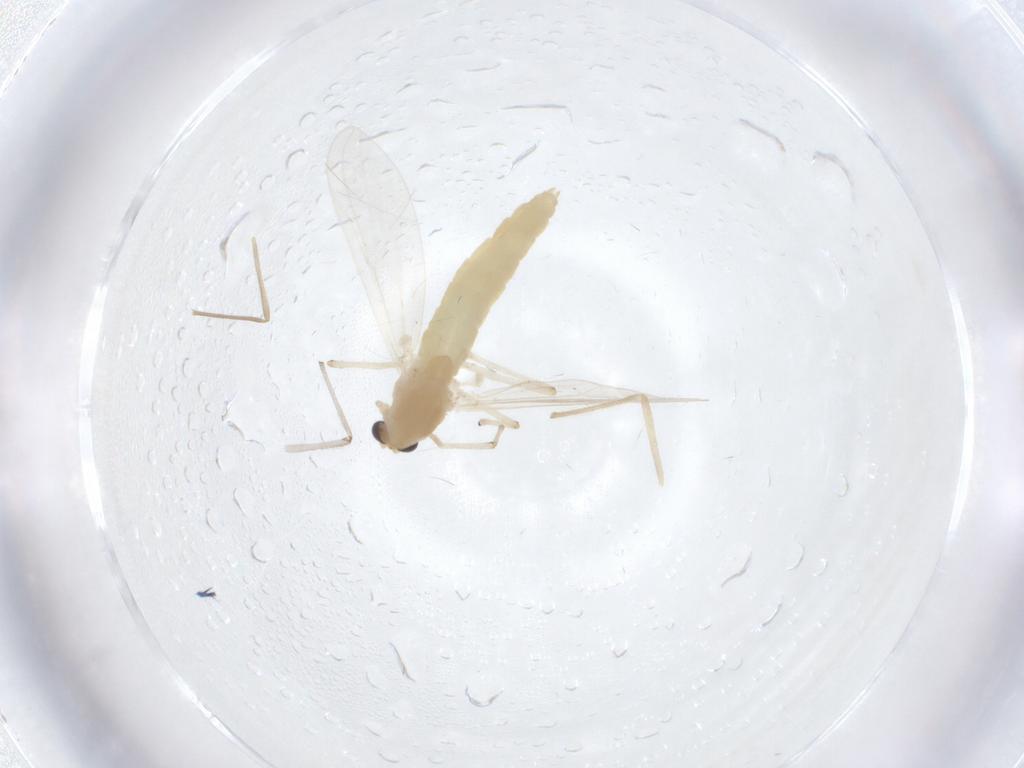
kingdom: Animalia
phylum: Arthropoda
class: Insecta
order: Diptera
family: Chironomidae
